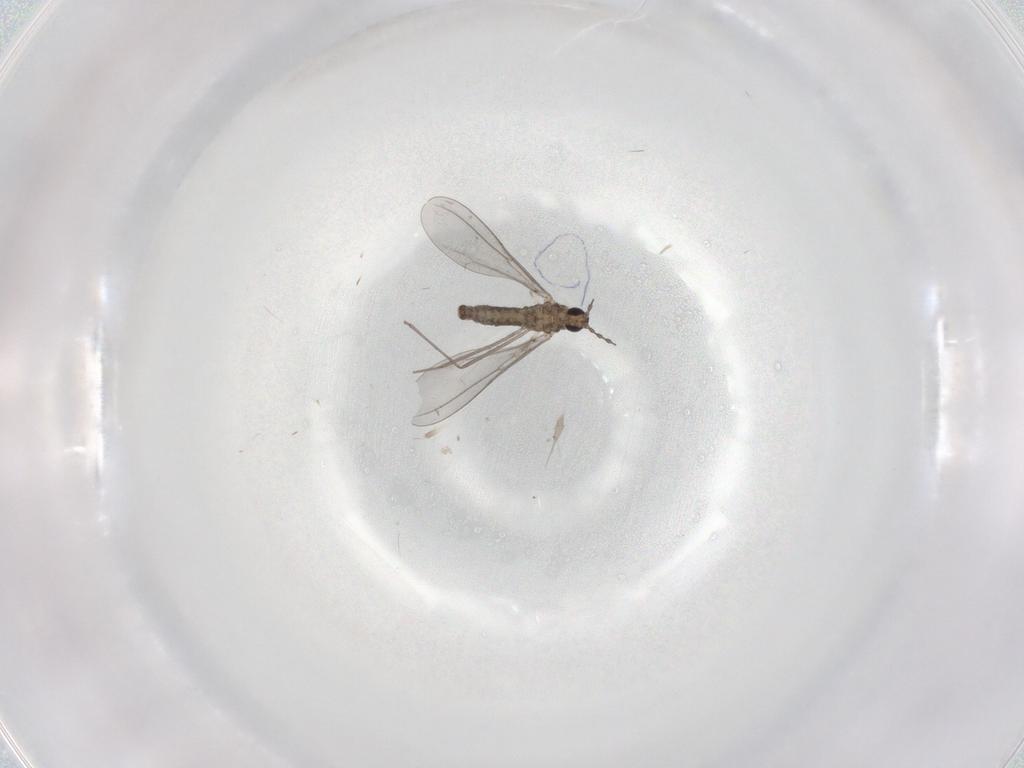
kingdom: Animalia
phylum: Arthropoda
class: Insecta
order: Diptera
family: Cecidomyiidae
